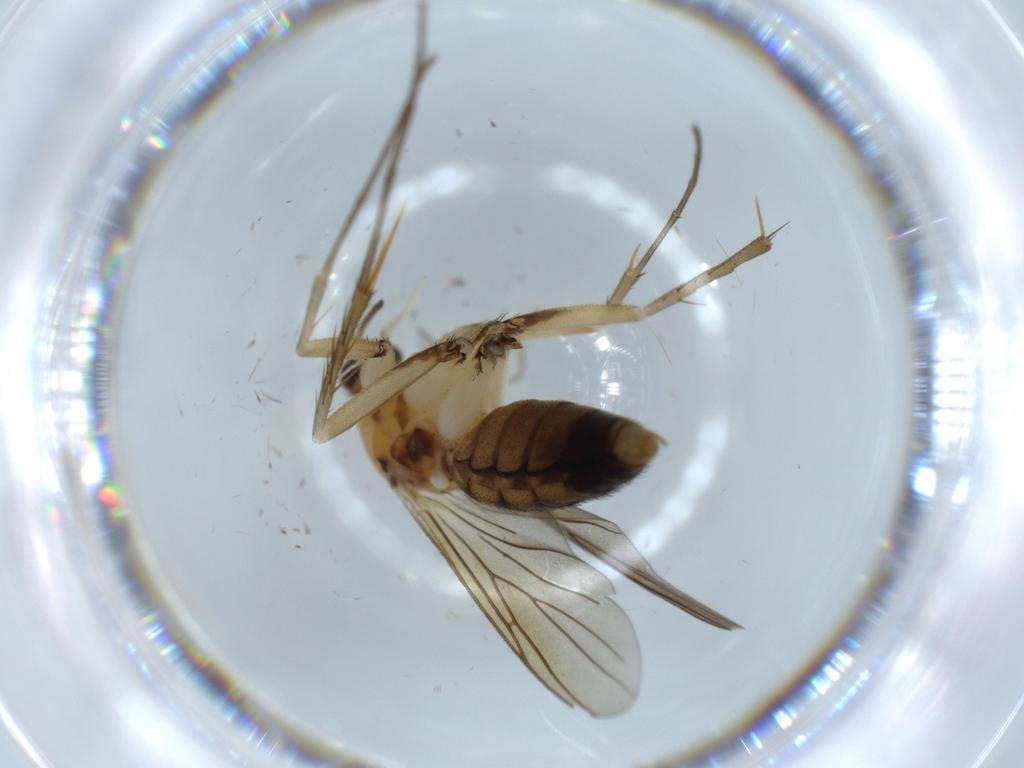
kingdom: Animalia
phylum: Arthropoda
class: Insecta
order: Diptera
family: Mycetophilidae
